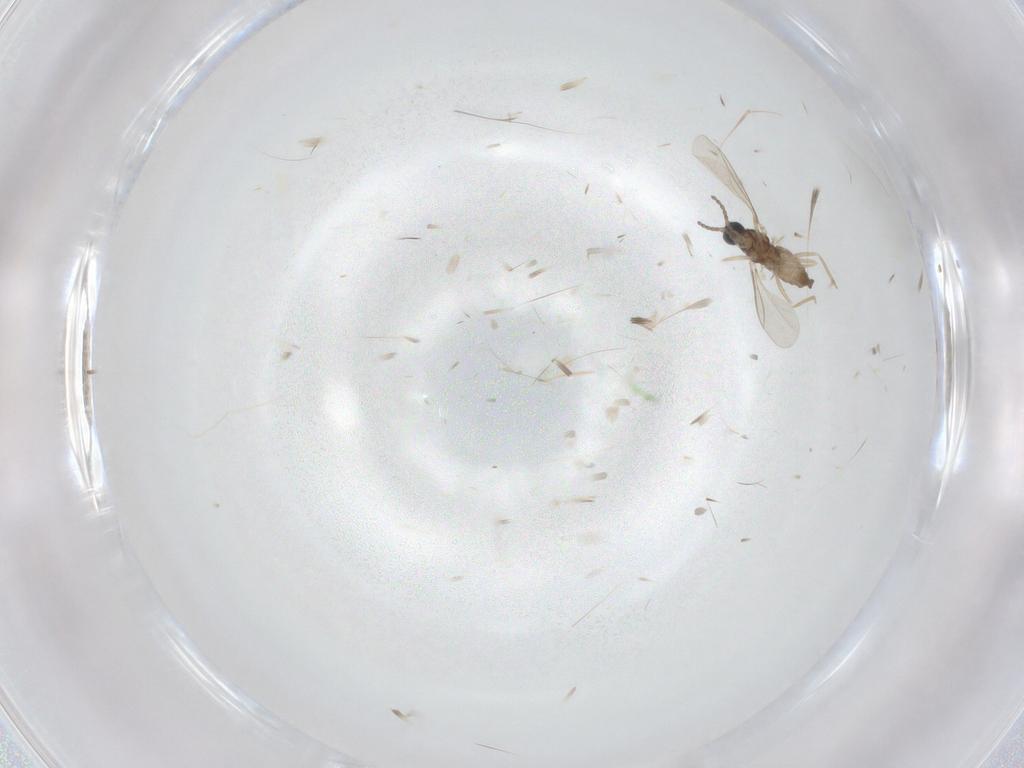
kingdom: Animalia
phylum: Arthropoda
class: Insecta
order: Diptera
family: Cecidomyiidae
